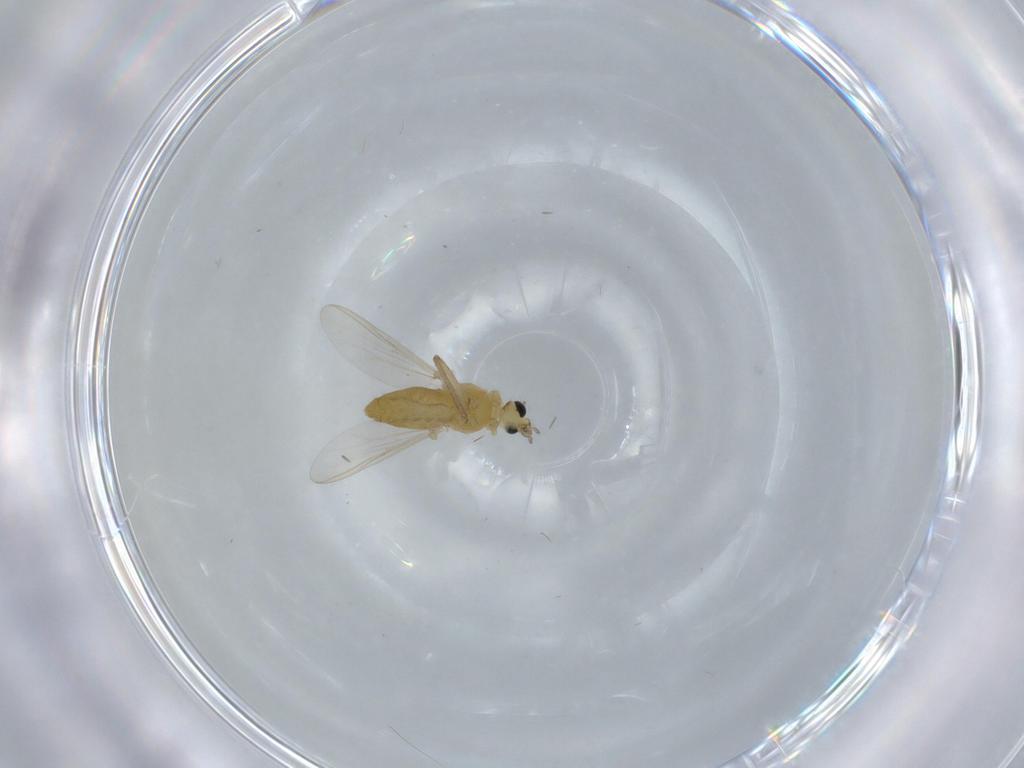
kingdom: Animalia
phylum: Arthropoda
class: Insecta
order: Diptera
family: Chironomidae
